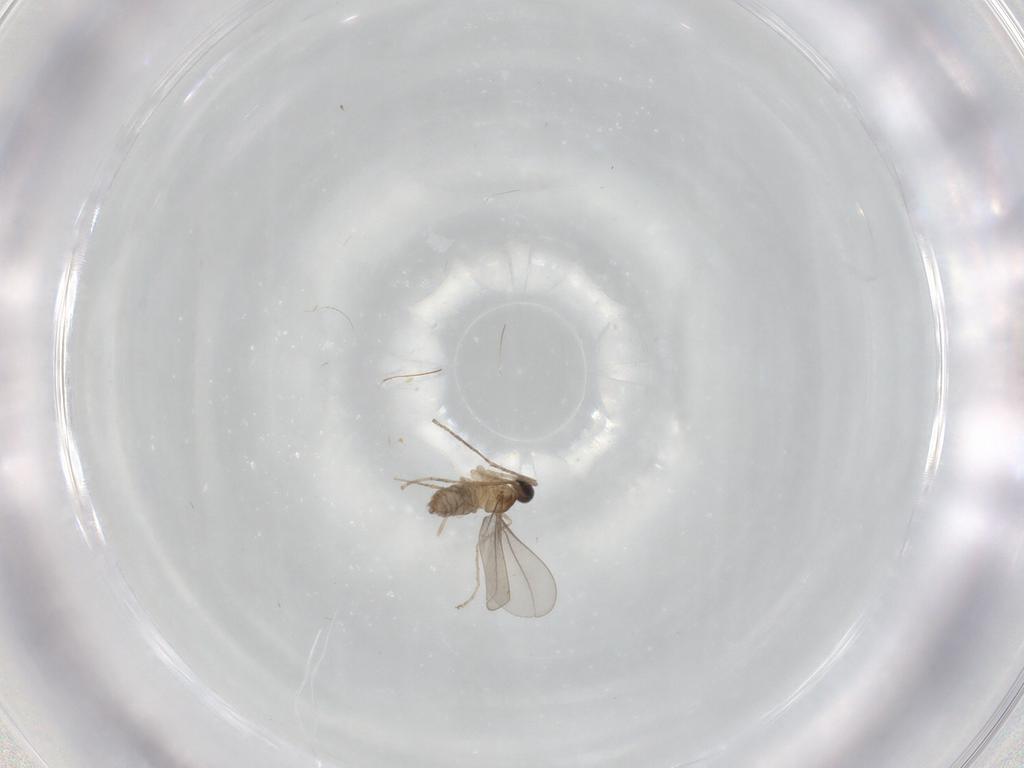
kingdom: Animalia
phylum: Arthropoda
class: Insecta
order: Diptera
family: Cecidomyiidae
